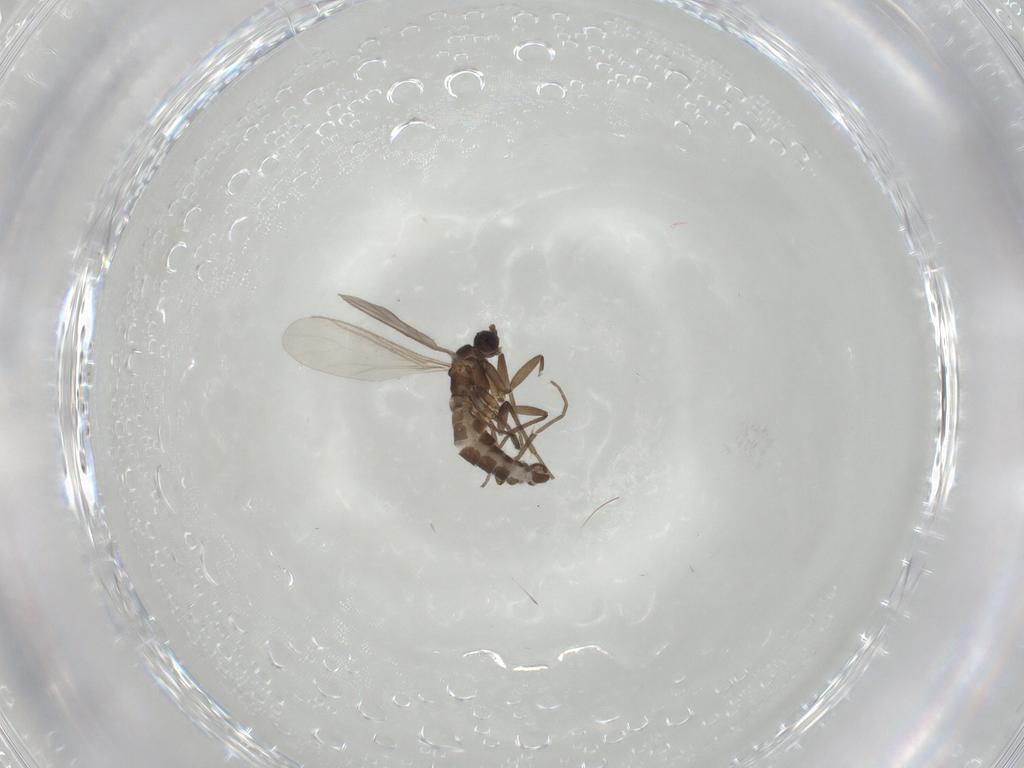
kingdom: Animalia
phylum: Arthropoda
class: Insecta
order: Diptera
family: Sciaridae
